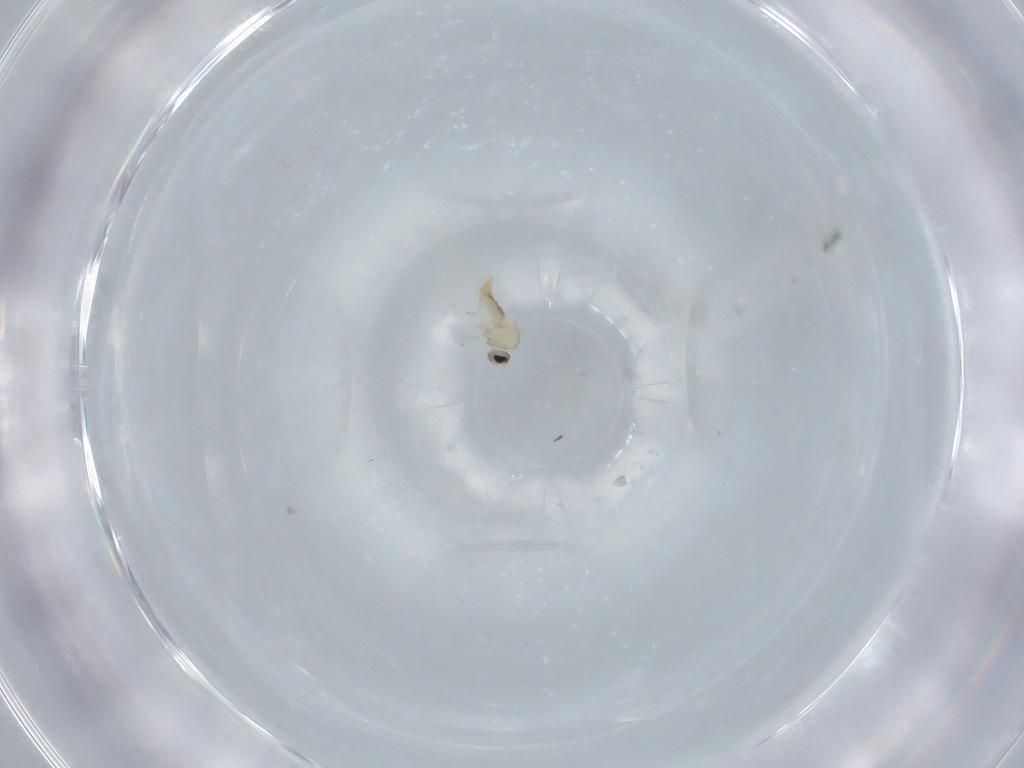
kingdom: Animalia
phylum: Arthropoda
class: Insecta
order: Diptera
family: Cecidomyiidae
